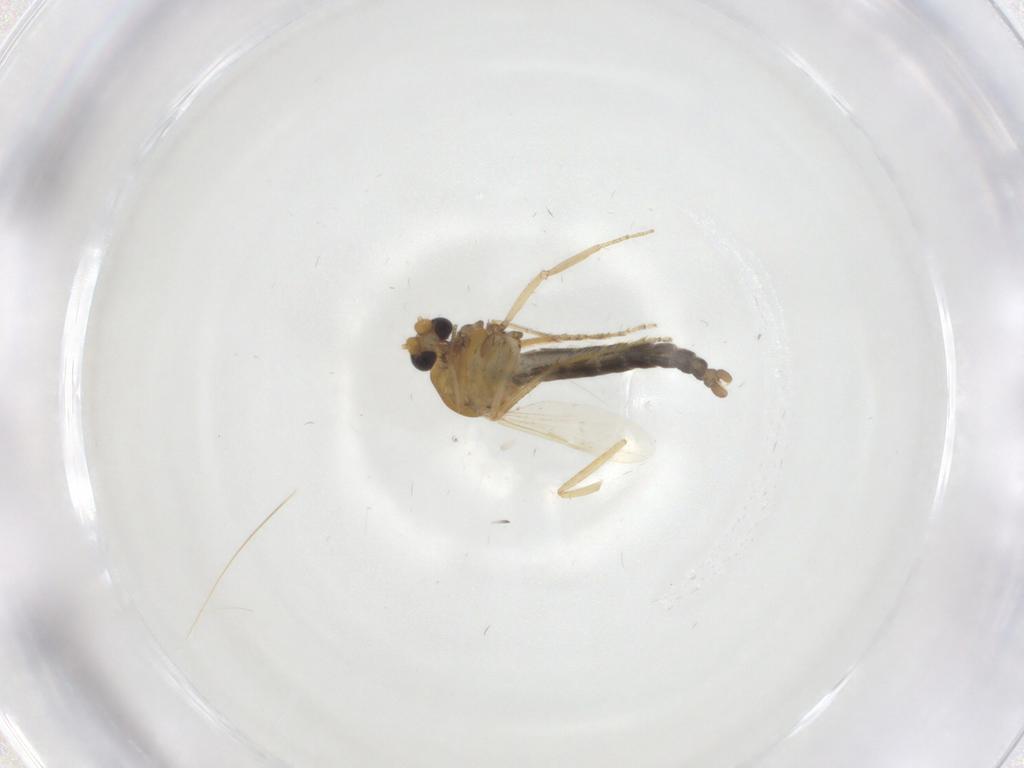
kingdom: Animalia
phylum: Arthropoda
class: Insecta
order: Diptera
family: Ceratopogonidae
